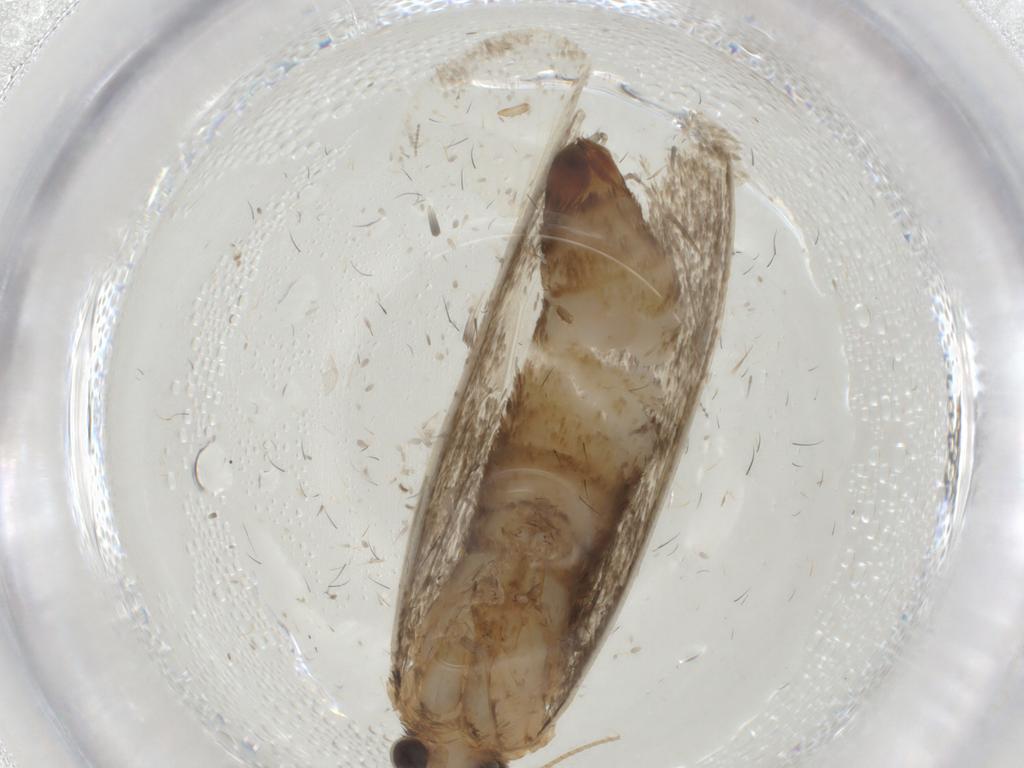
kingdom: Animalia
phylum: Arthropoda
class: Insecta
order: Lepidoptera
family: Tineidae
